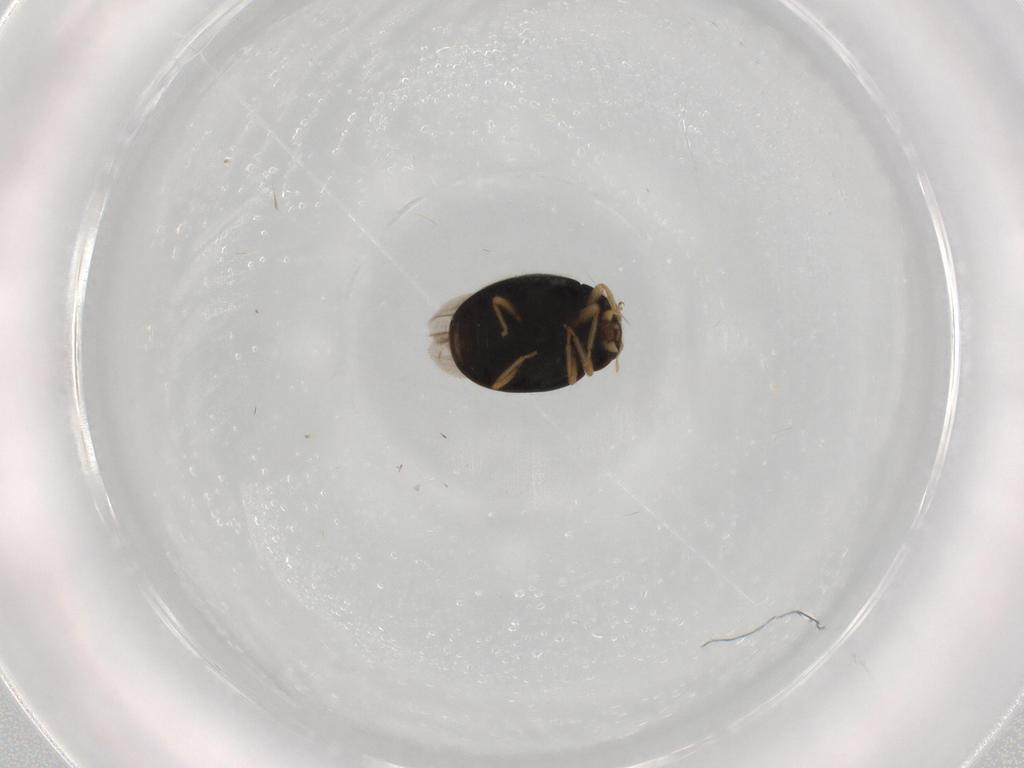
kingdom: Animalia
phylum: Arthropoda
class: Insecta
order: Coleoptera
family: Coccinellidae
